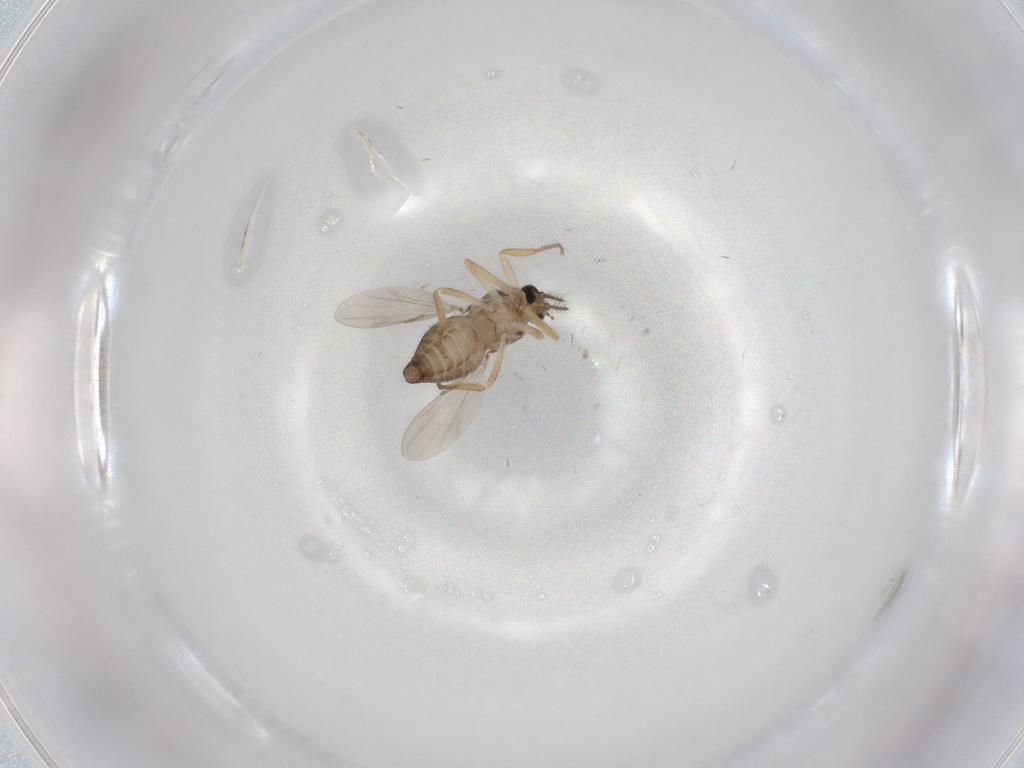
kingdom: Animalia
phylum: Arthropoda
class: Insecta
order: Diptera
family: Ceratopogonidae
